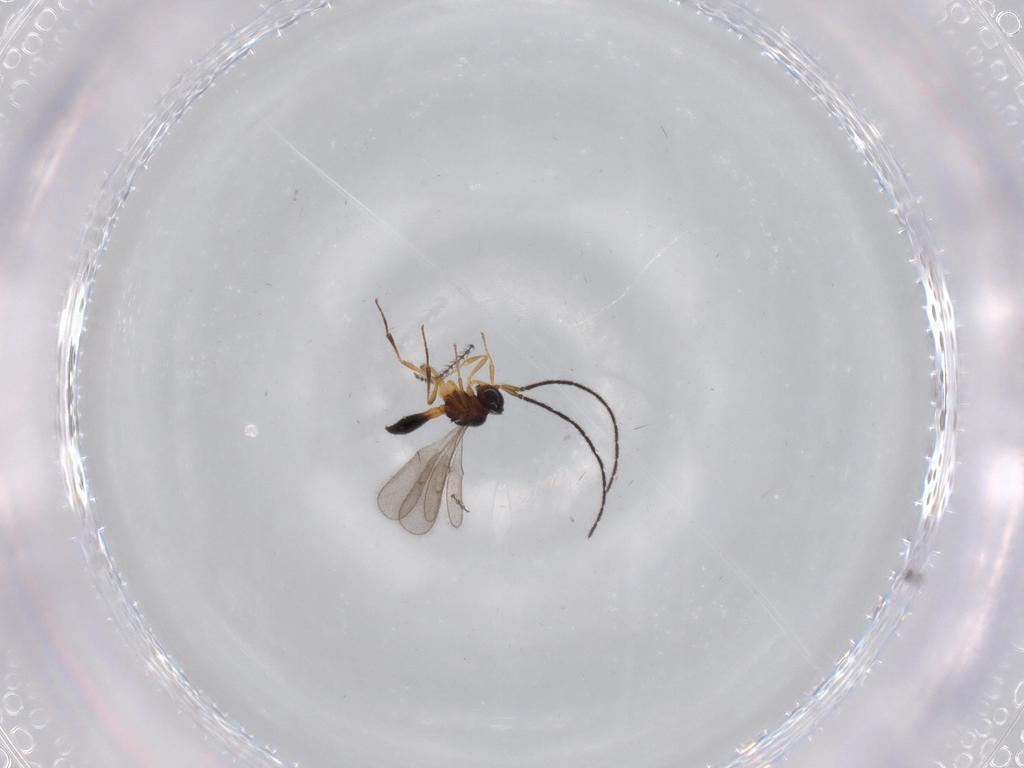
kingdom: Animalia
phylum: Arthropoda
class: Insecta
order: Hymenoptera
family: Scelionidae
